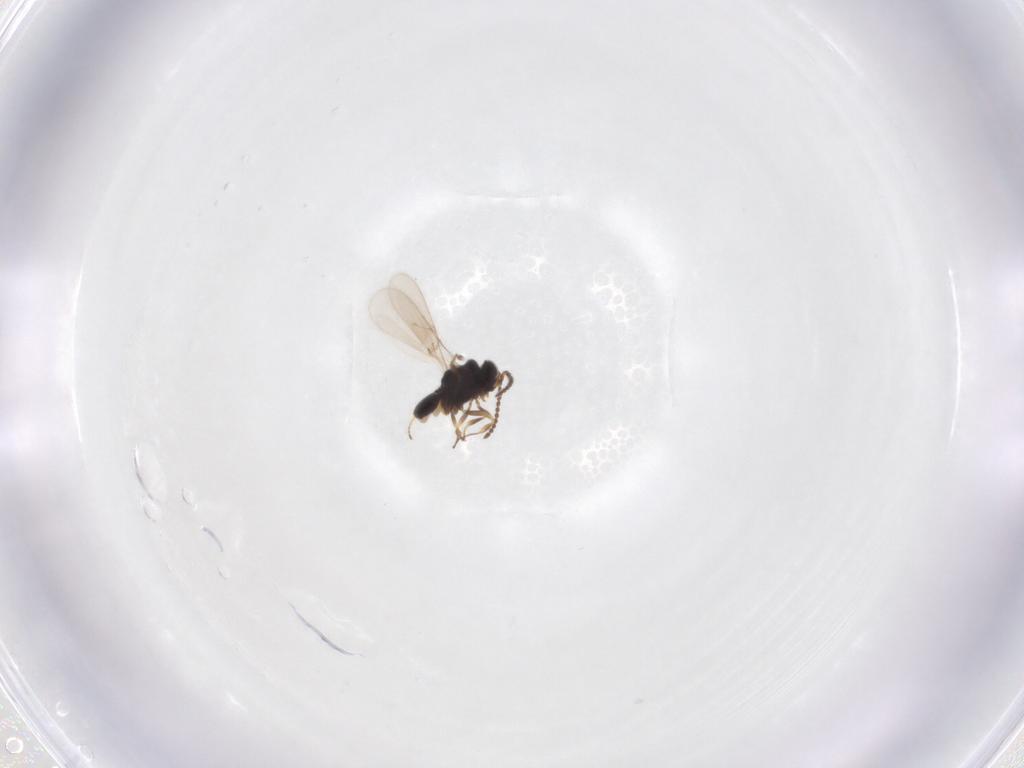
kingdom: Animalia
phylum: Arthropoda
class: Insecta
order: Hymenoptera
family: Scelionidae
